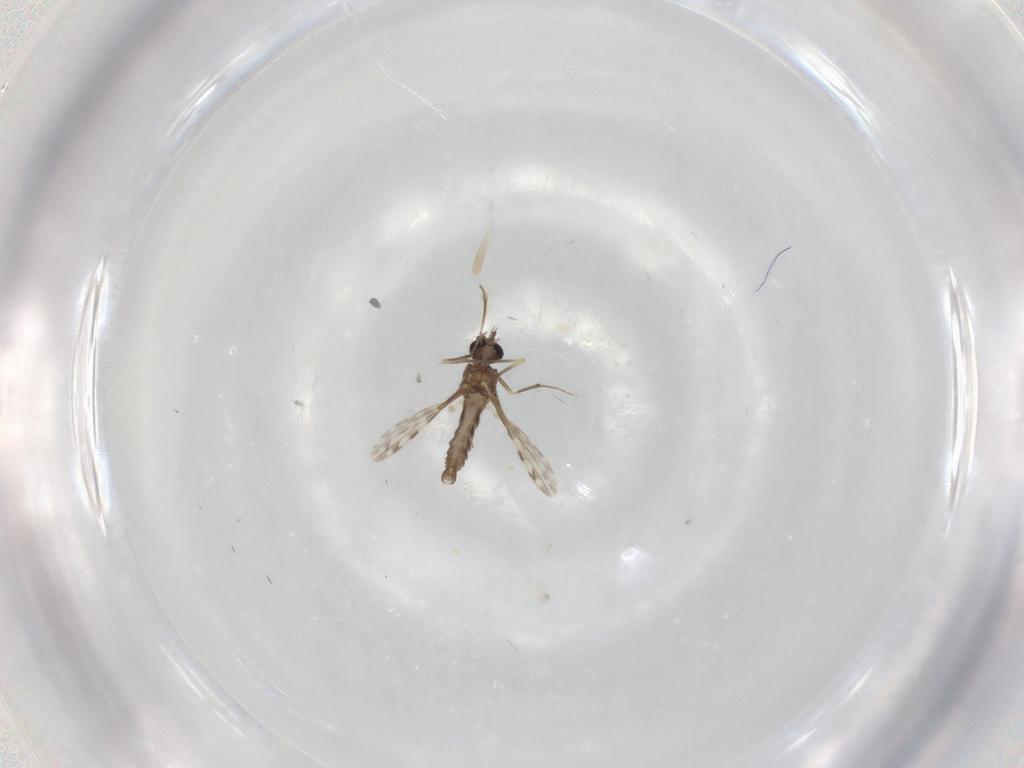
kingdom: Animalia
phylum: Arthropoda
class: Insecta
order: Diptera
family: Ceratopogonidae
